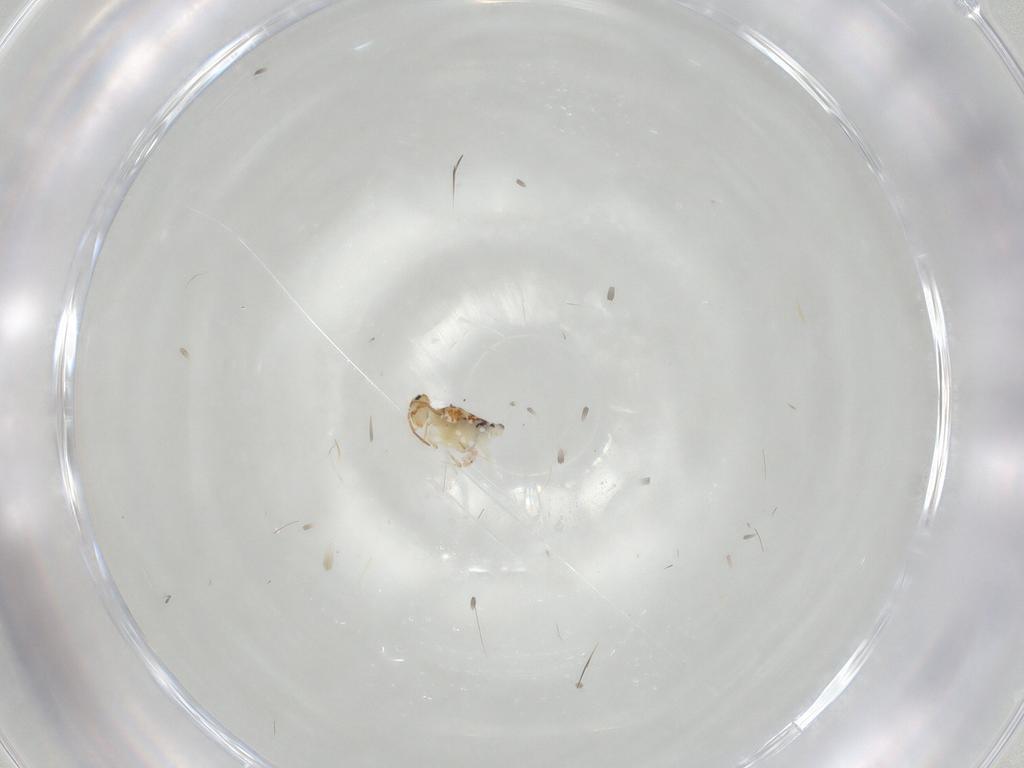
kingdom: Animalia
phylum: Arthropoda
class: Collembola
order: Symphypleona
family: Bourletiellidae
